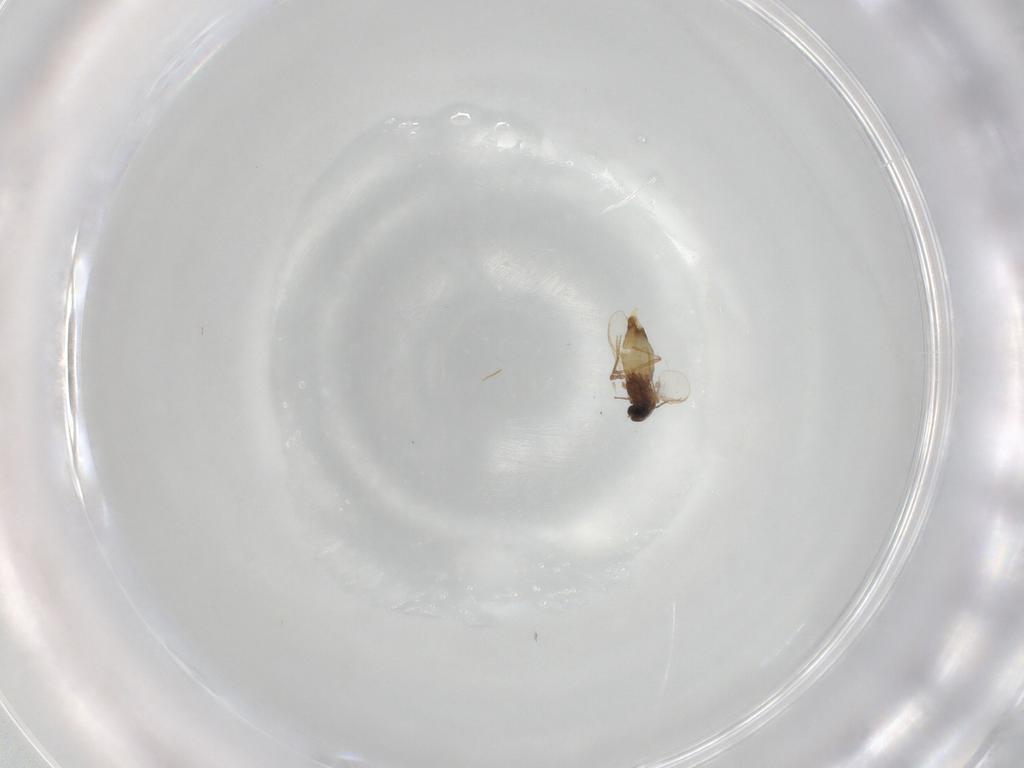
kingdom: Animalia
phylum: Arthropoda
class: Insecta
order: Diptera
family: Chironomidae
